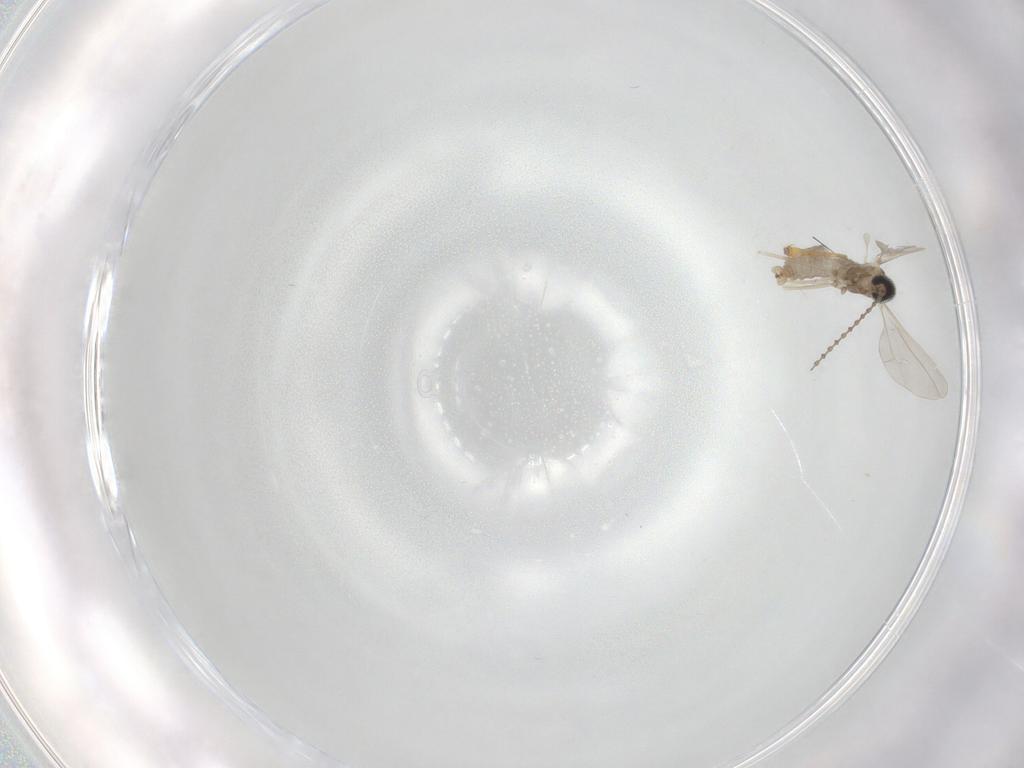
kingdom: Animalia
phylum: Arthropoda
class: Insecta
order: Diptera
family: Cecidomyiidae
